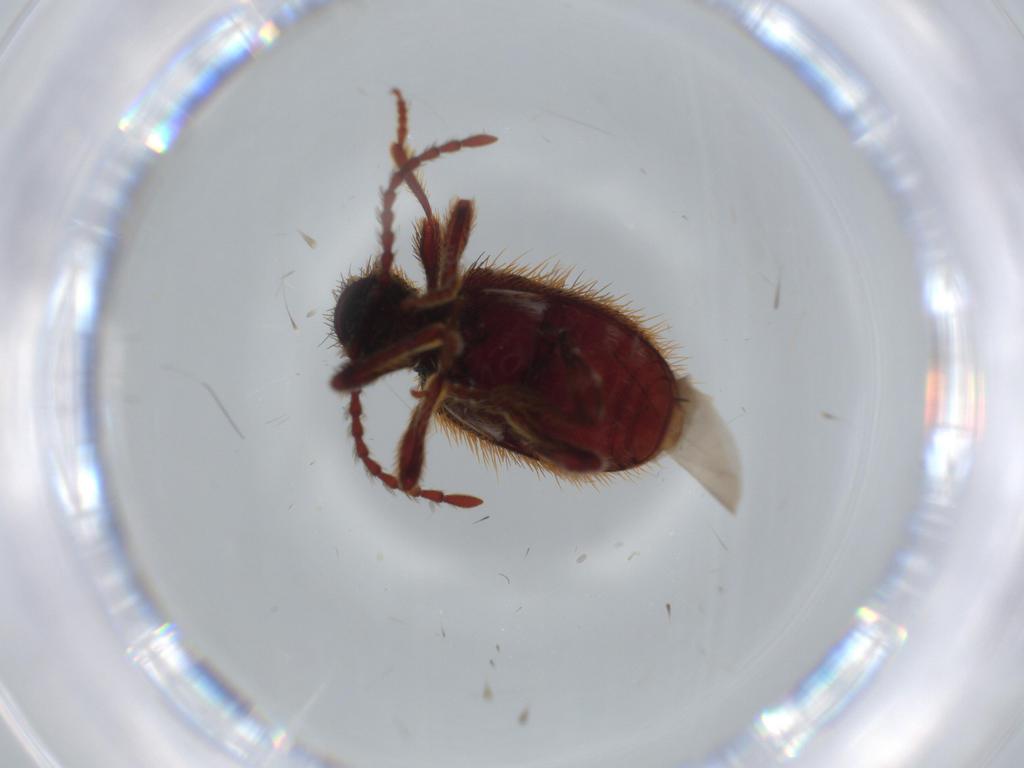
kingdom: Animalia
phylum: Arthropoda
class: Insecta
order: Coleoptera
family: Ptinidae
